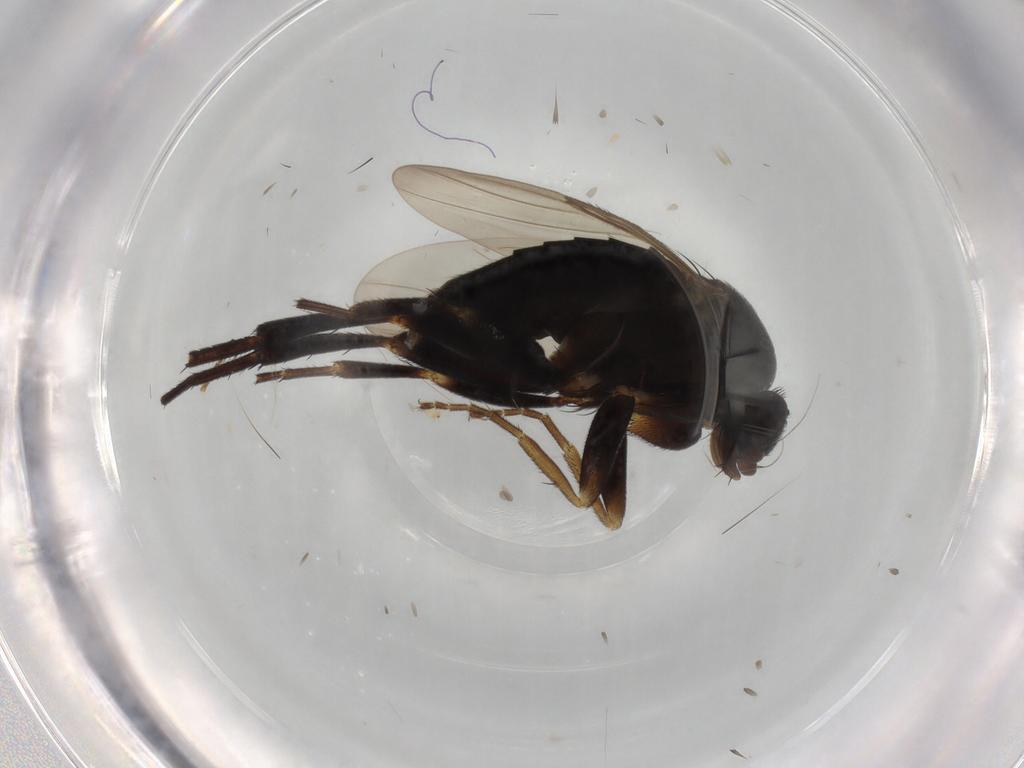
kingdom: Animalia
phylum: Arthropoda
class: Insecta
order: Diptera
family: Phoridae
